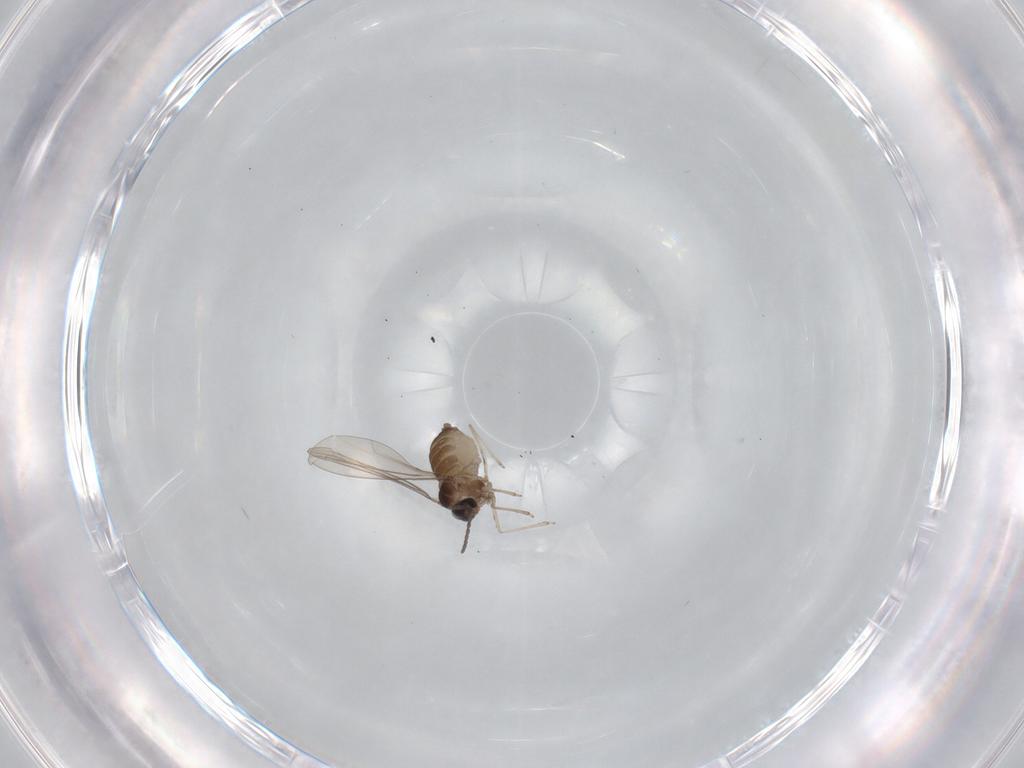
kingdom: Animalia
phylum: Arthropoda
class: Insecta
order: Diptera
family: Cecidomyiidae
